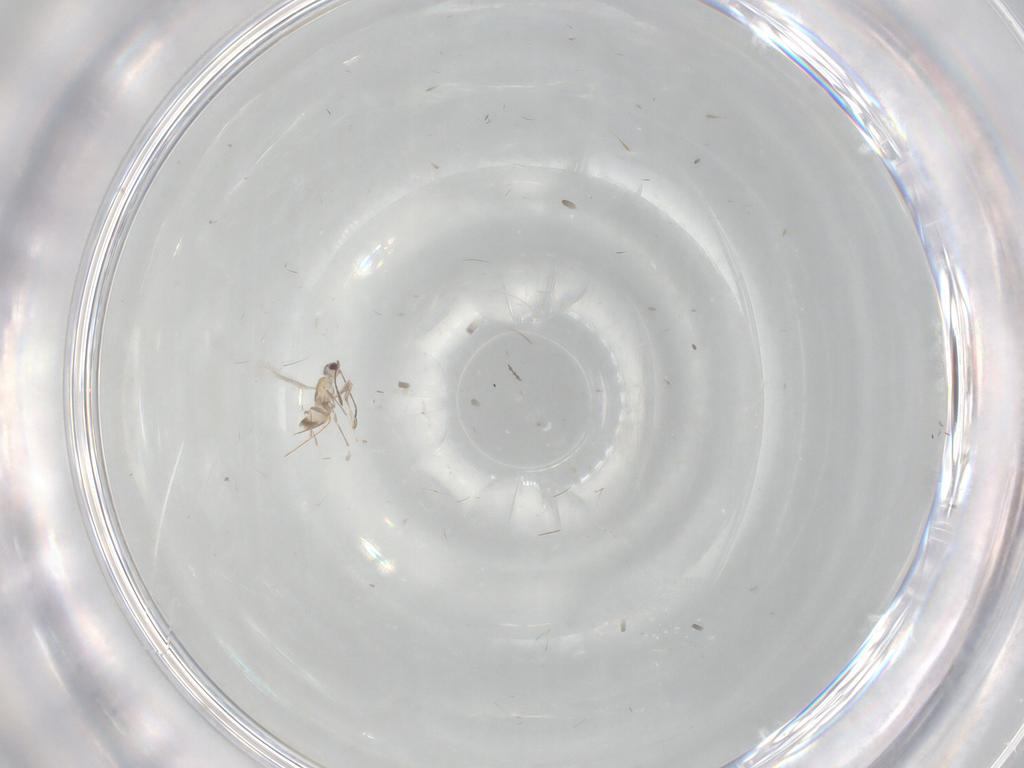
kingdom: Animalia
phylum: Arthropoda
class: Insecta
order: Hymenoptera
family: Mymaridae
